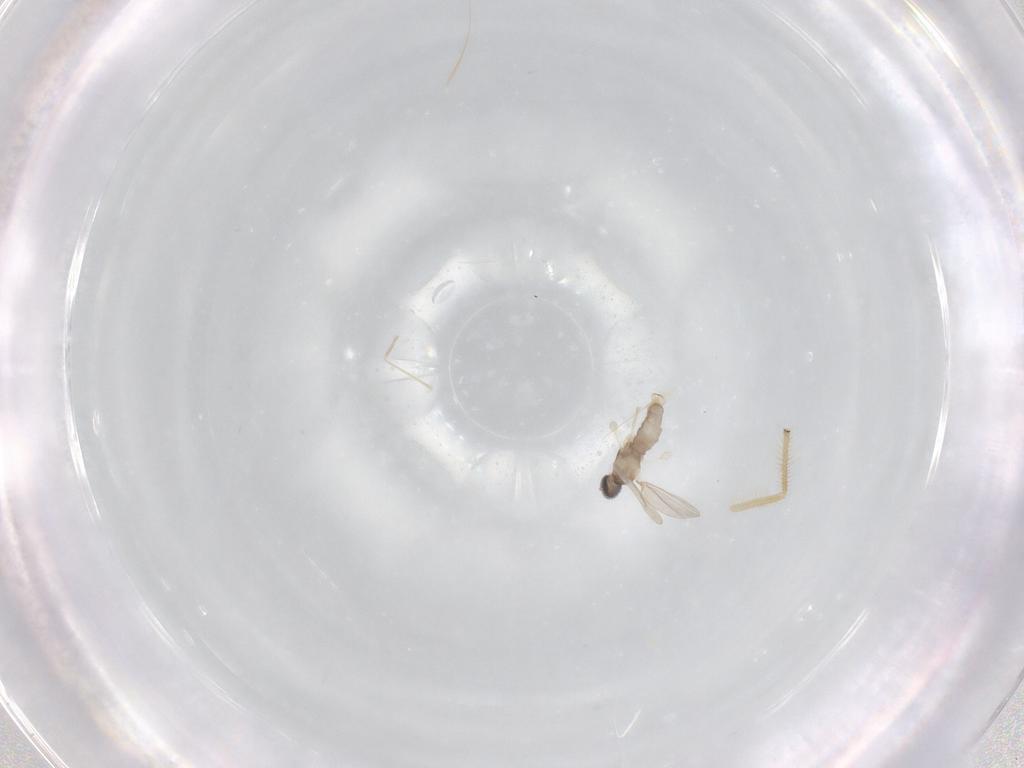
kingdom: Animalia
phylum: Arthropoda
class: Insecta
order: Diptera
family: Cecidomyiidae
